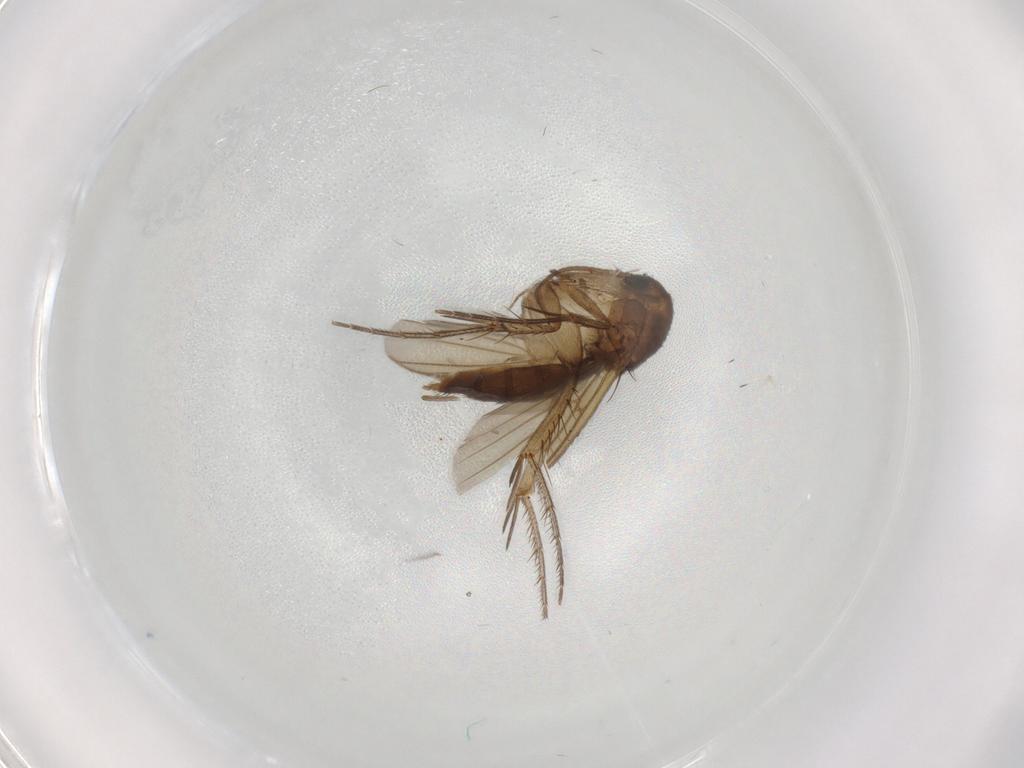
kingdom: Animalia
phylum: Arthropoda
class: Insecta
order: Diptera
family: Mycetophilidae
